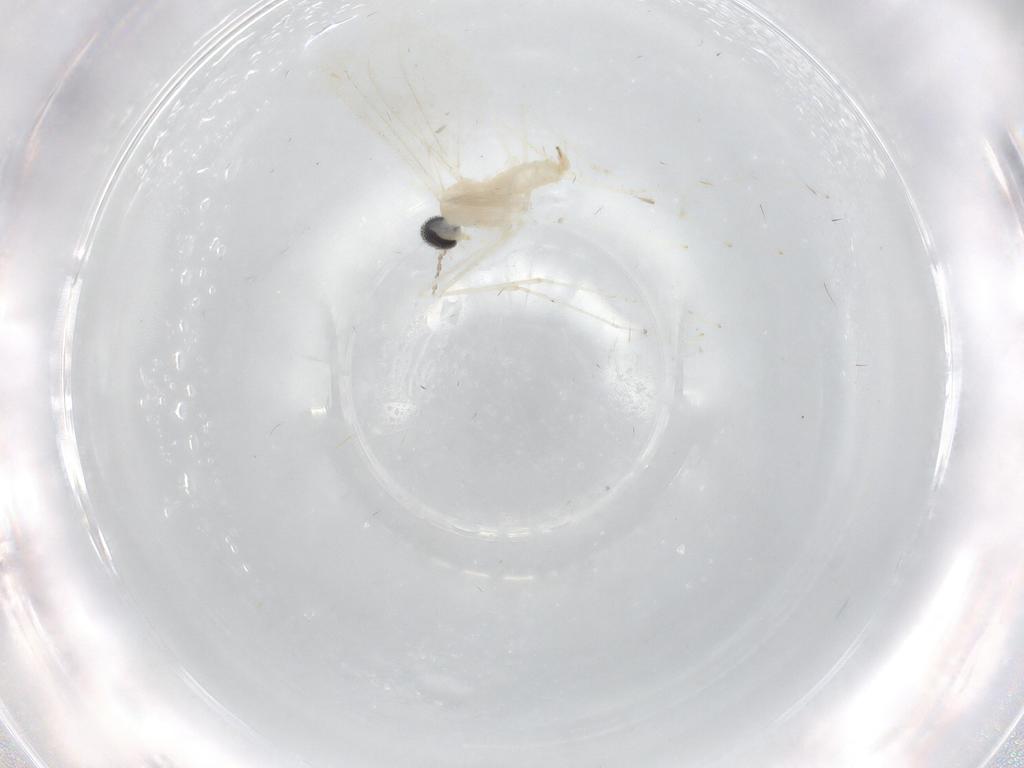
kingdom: Animalia
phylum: Arthropoda
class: Insecta
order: Diptera
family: Cecidomyiidae
